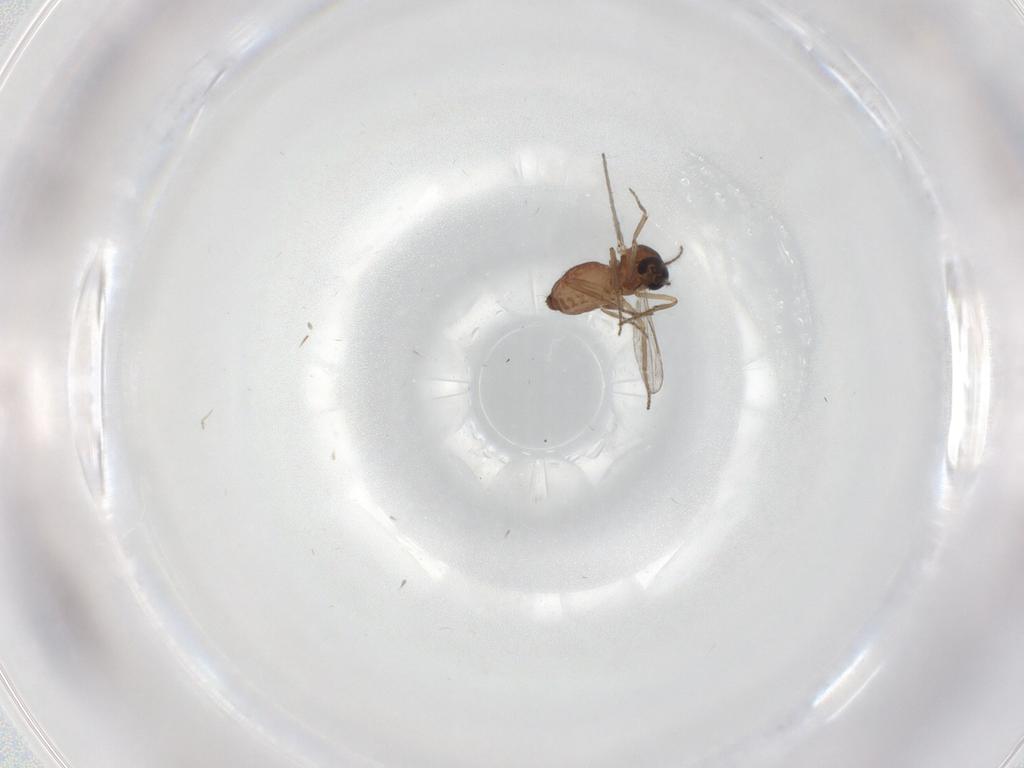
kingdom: Animalia
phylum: Arthropoda
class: Insecta
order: Diptera
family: Ceratopogonidae
